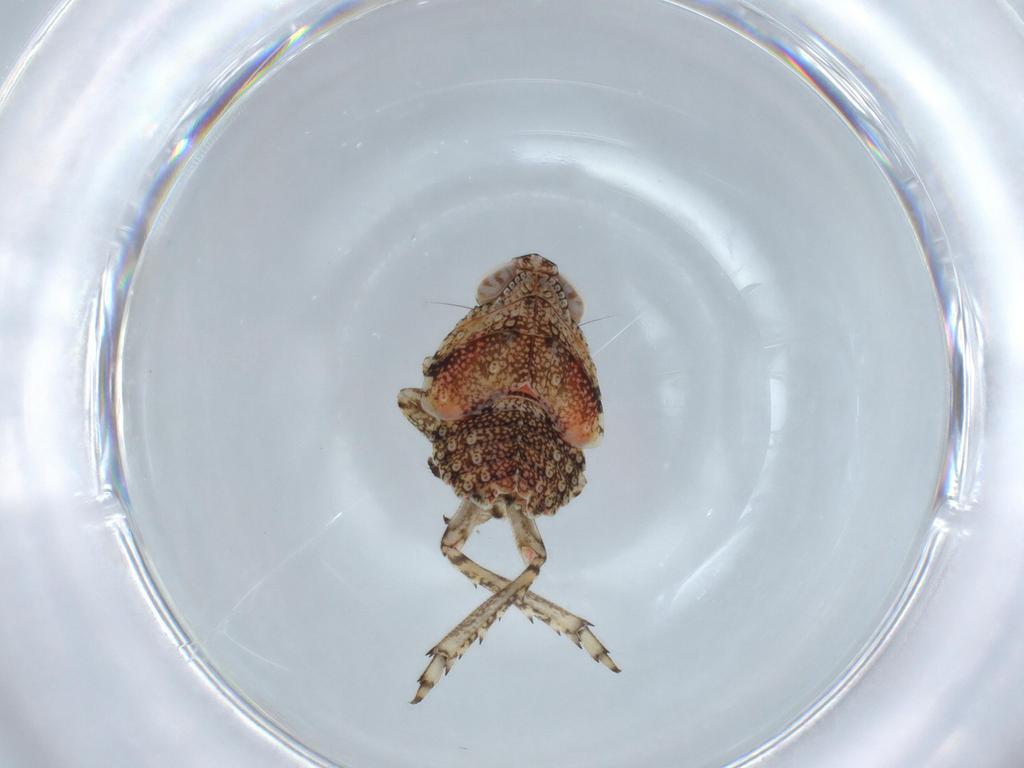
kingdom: Animalia
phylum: Arthropoda
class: Insecta
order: Hemiptera
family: Issidae
